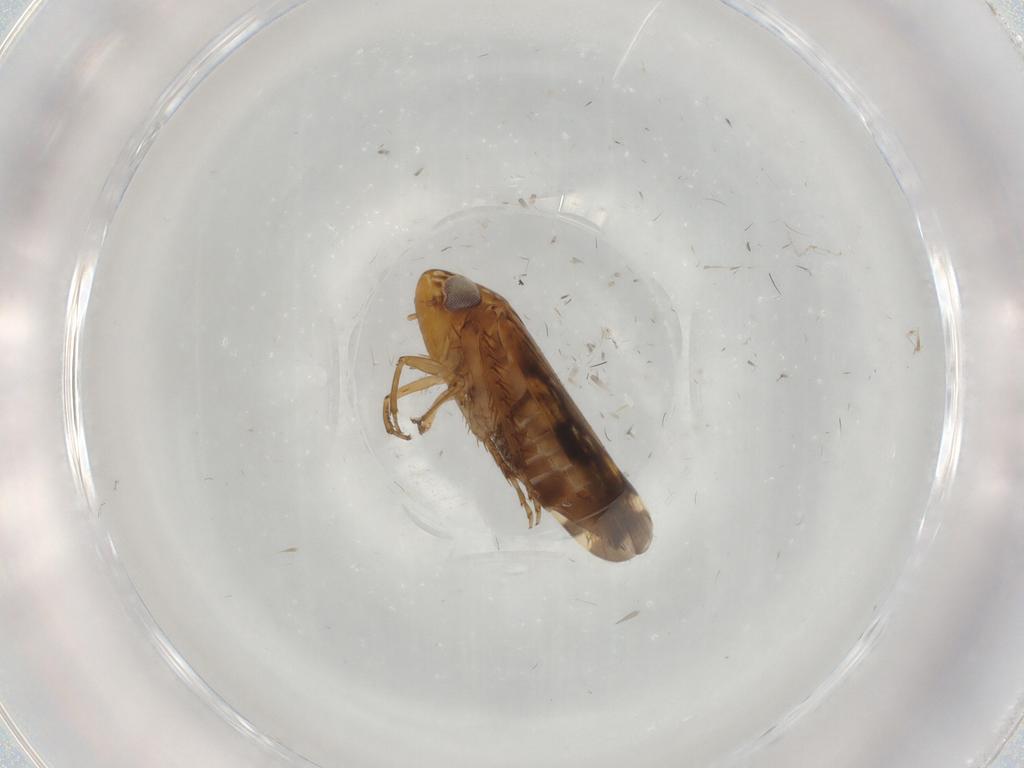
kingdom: Animalia
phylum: Arthropoda
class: Insecta
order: Hemiptera
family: Cicadellidae
